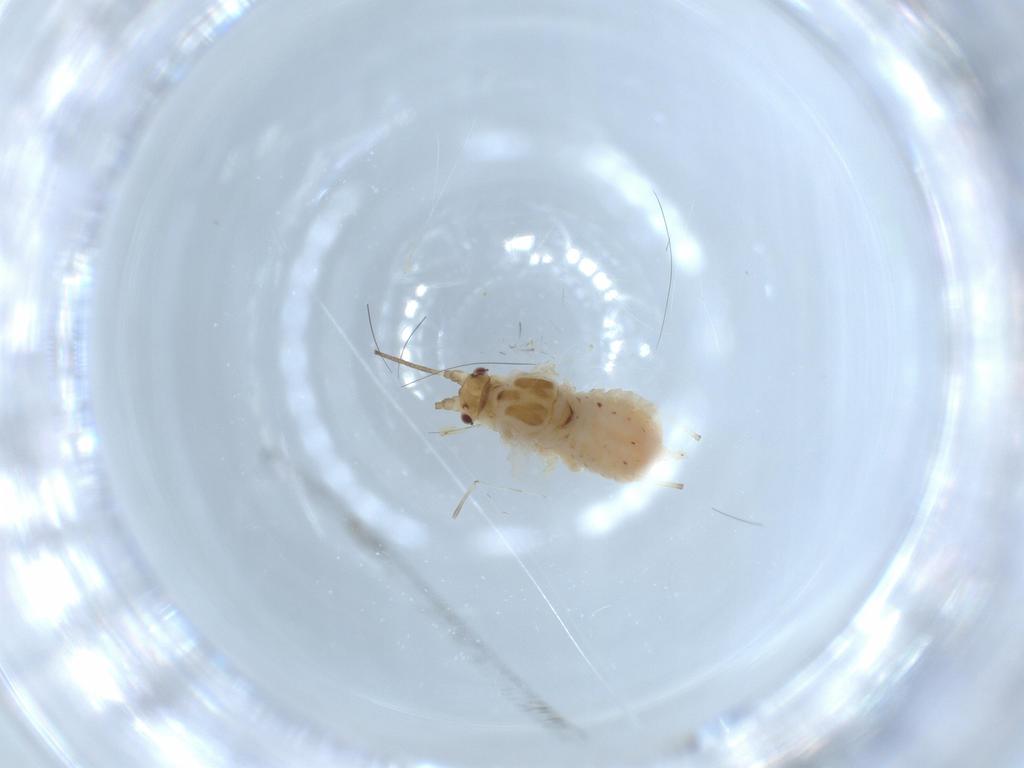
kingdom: Animalia
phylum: Arthropoda
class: Insecta
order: Hemiptera
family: Aphididae
